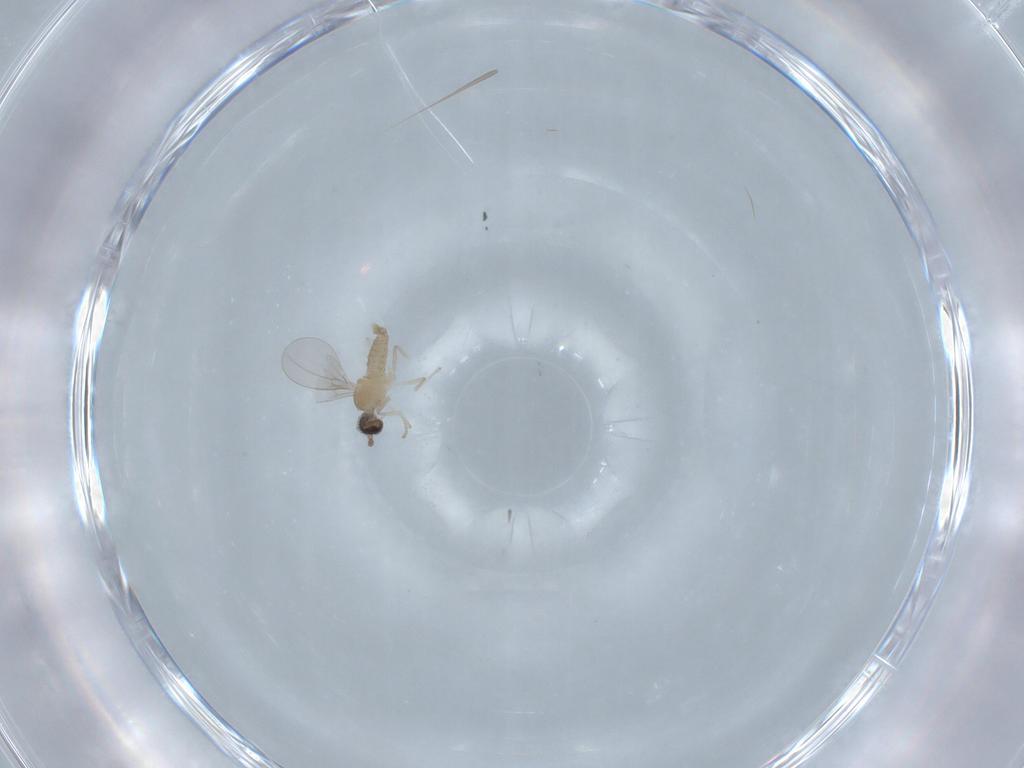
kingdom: Animalia
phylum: Arthropoda
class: Insecta
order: Diptera
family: Cecidomyiidae
